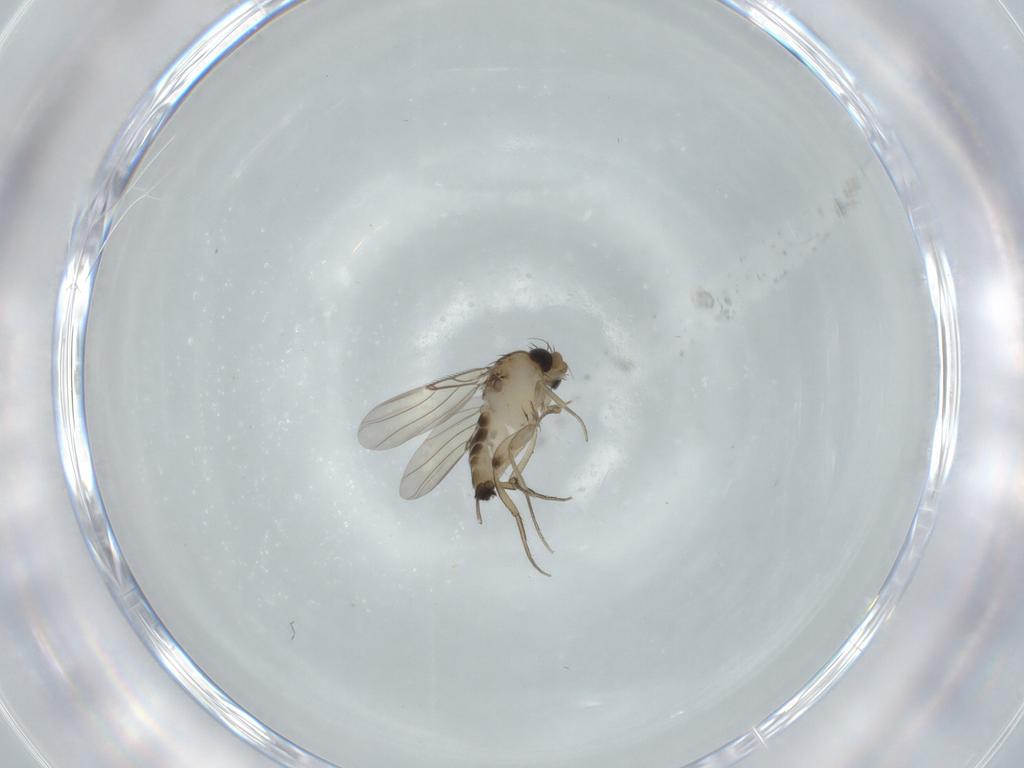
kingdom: Animalia
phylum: Arthropoda
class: Insecta
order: Diptera
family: Phoridae
